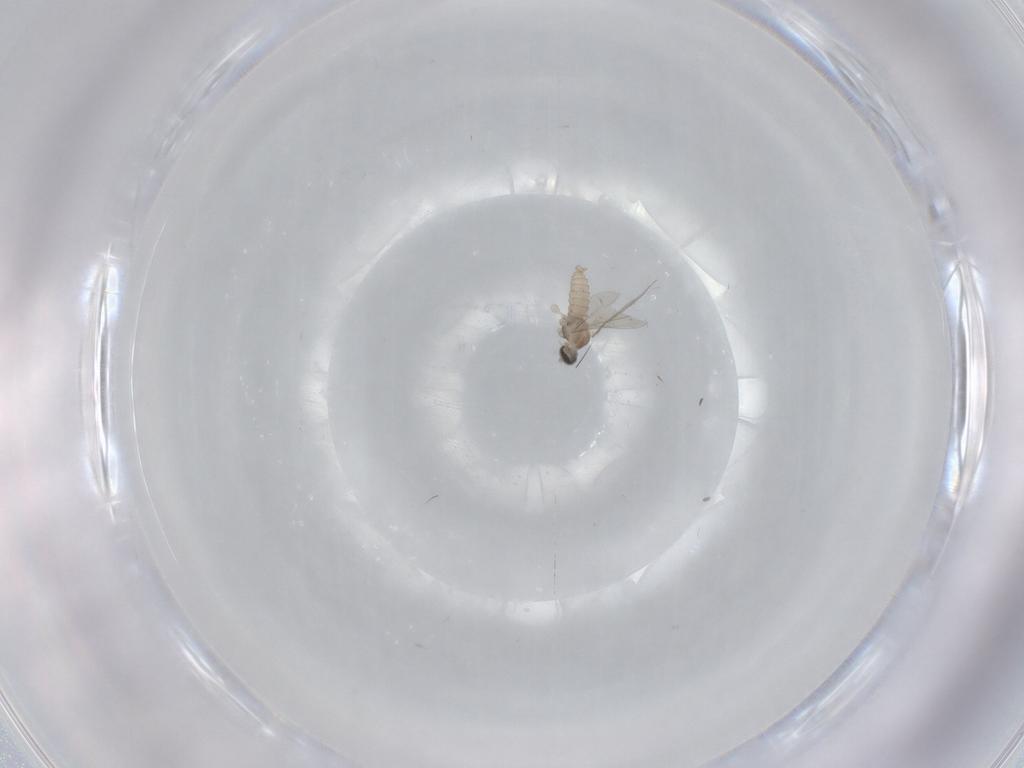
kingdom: Animalia
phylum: Arthropoda
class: Insecta
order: Diptera
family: Cecidomyiidae
